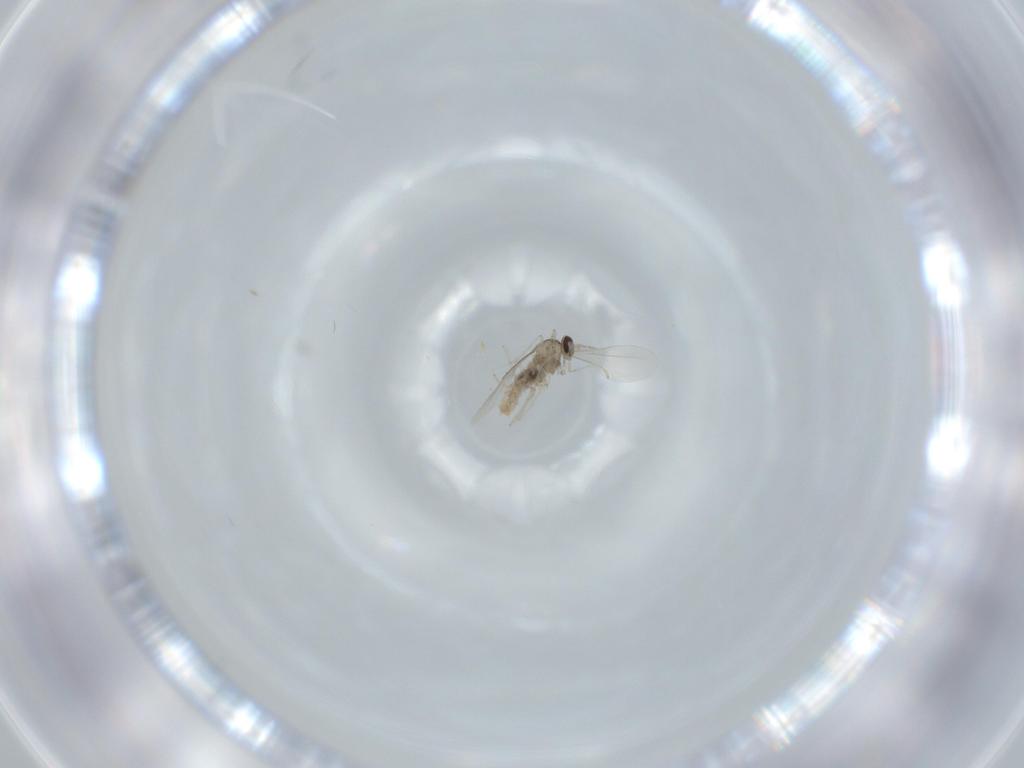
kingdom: Animalia
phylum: Arthropoda
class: Insecta
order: Diptera
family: Cecidomyiidae
